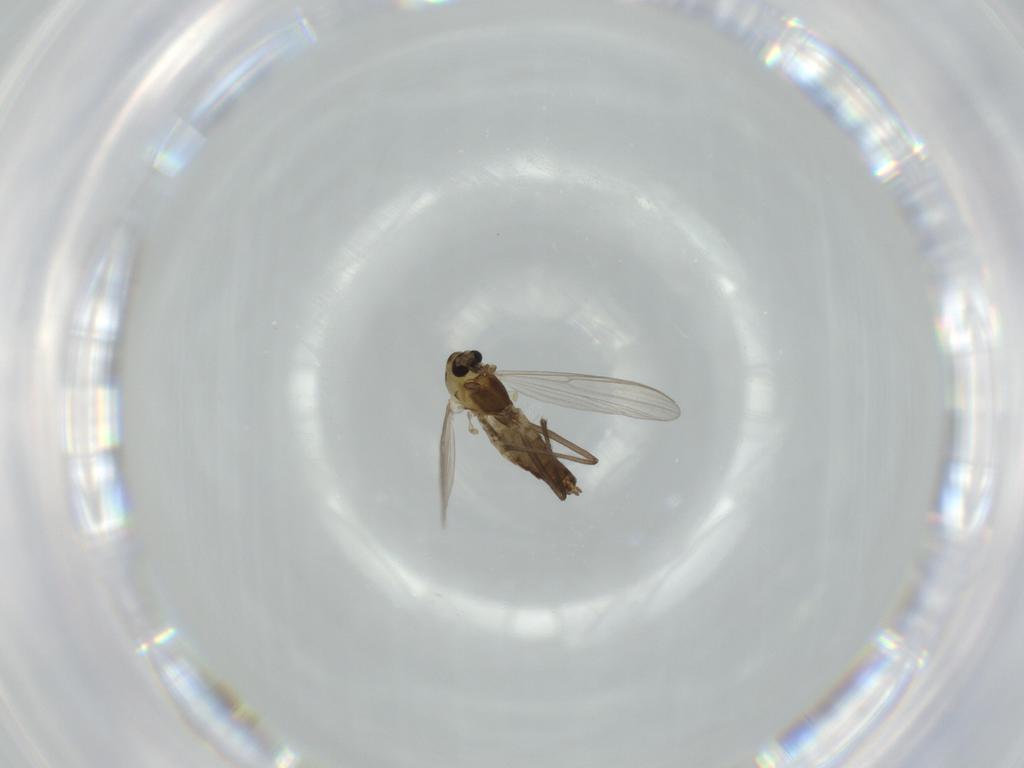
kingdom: Animalia
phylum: Arthropoda
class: Insecta
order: Diptera
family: Chironomidae
